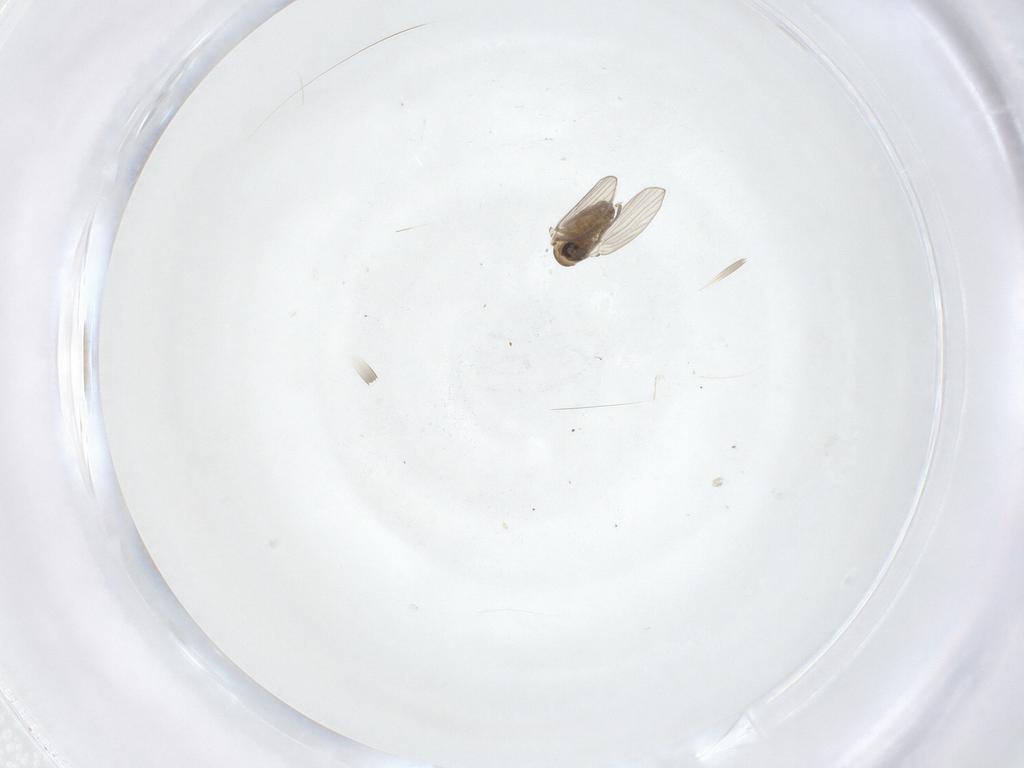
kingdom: Animalia
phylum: Arthropoda
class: Insecta
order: Diptera
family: Psychodidae
